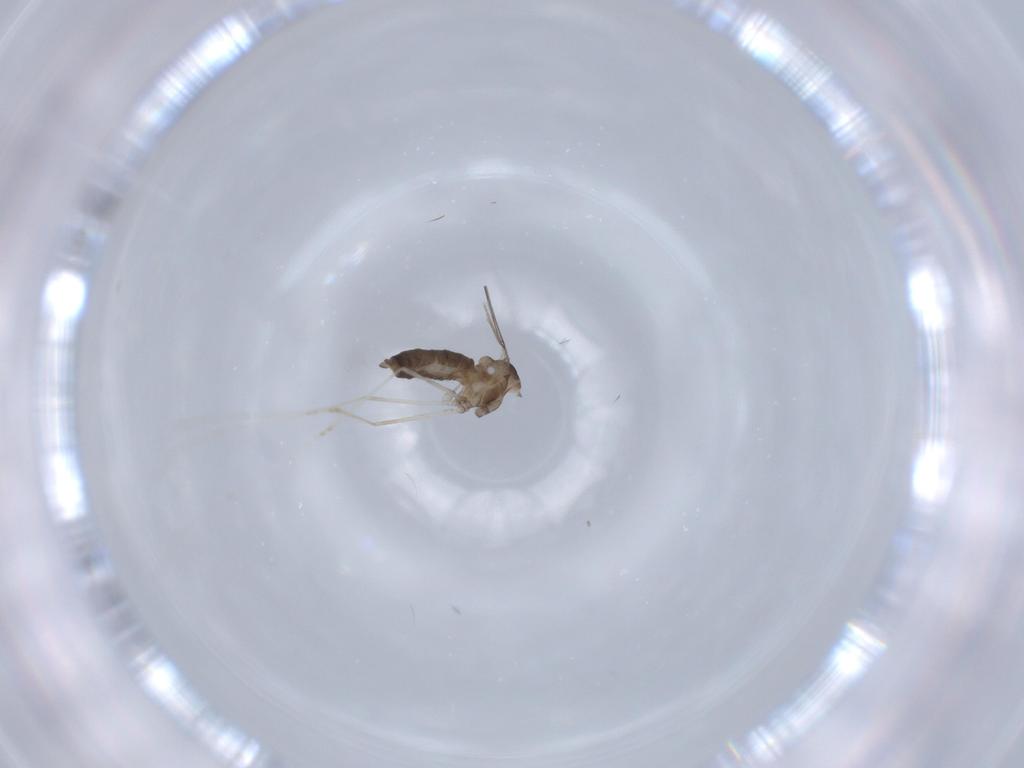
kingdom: Animalia
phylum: Arthropoda
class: Insecta
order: Diptera
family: Cecidomyiidae
